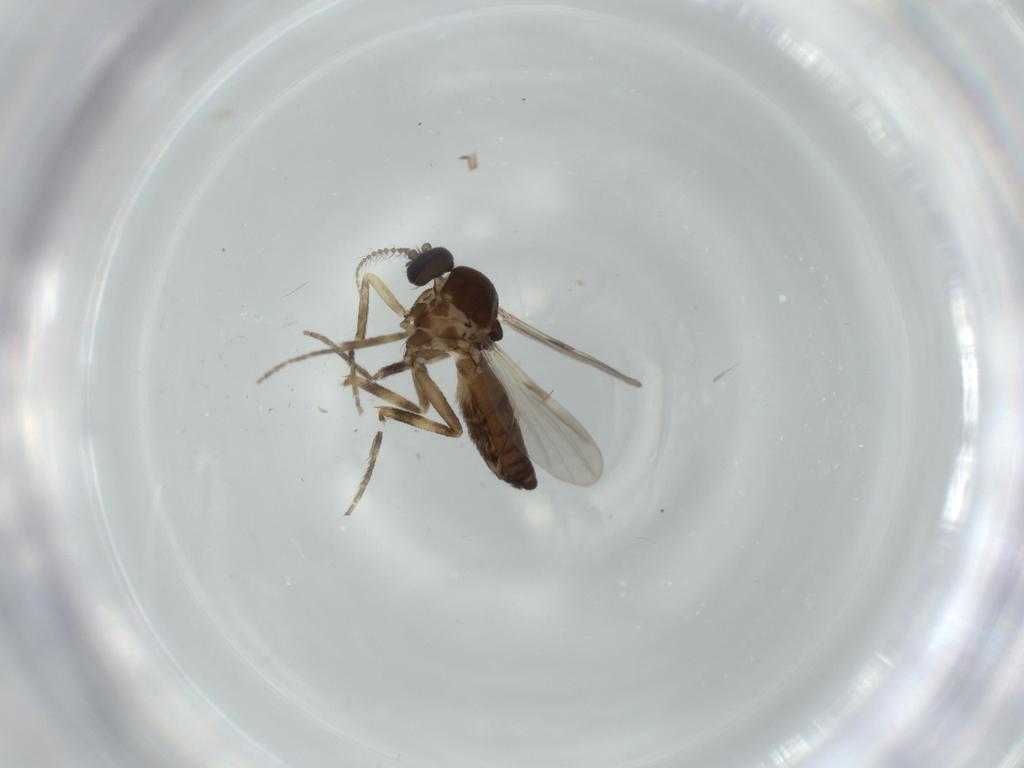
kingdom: Animalia
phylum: Arthropoda
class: Insecta
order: Diptera
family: Ceratopogonidae
